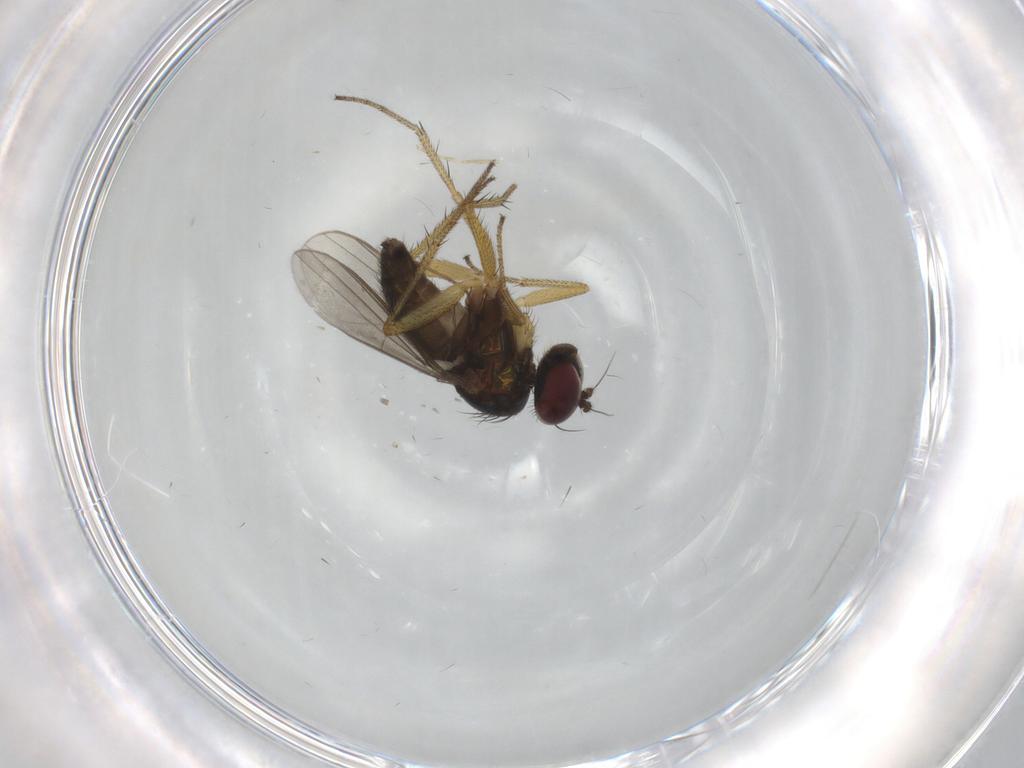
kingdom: Animalia
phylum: Arthropoda
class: Insecta
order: Diptera
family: Dolichopodidae
